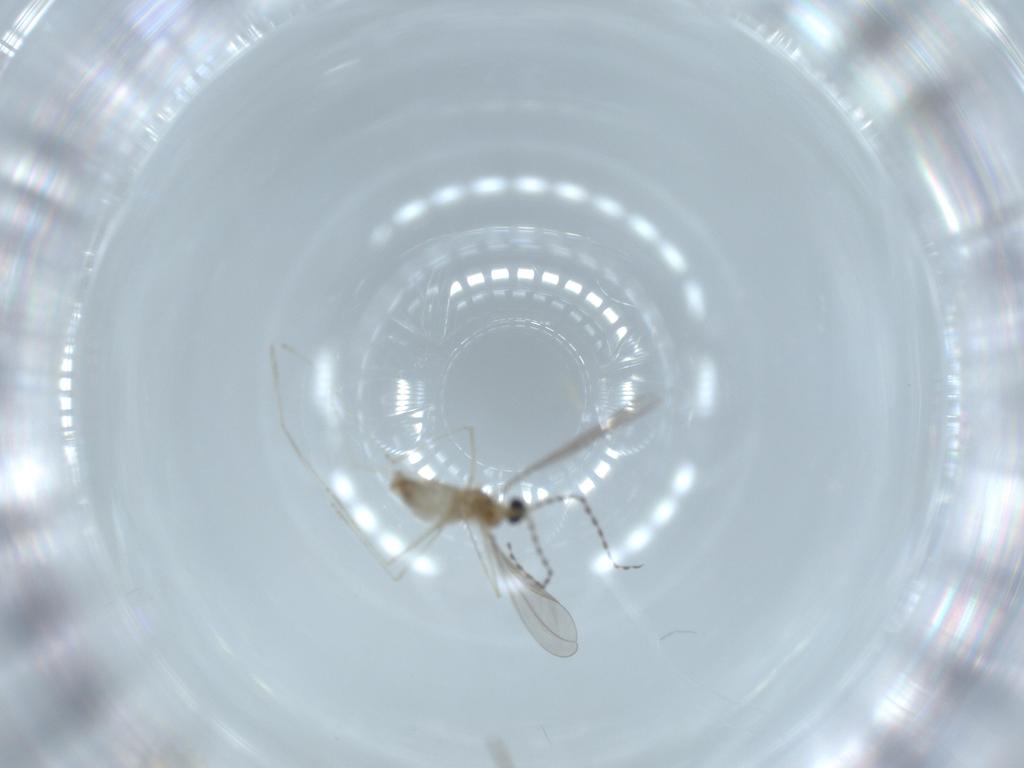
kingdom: Animalia
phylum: Arthropoda
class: Insecta
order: Diptera
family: Cecidomyiidae
